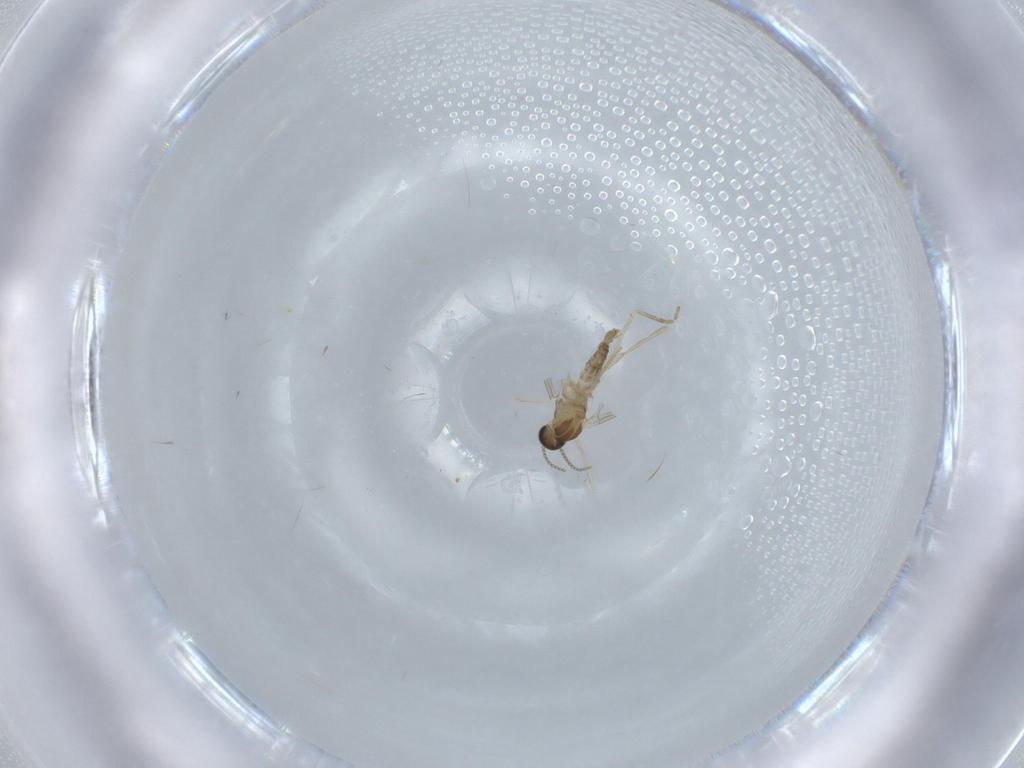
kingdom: Animalia
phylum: Arthropoda
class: Insecta
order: Diptera
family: Cecidomyiidae
